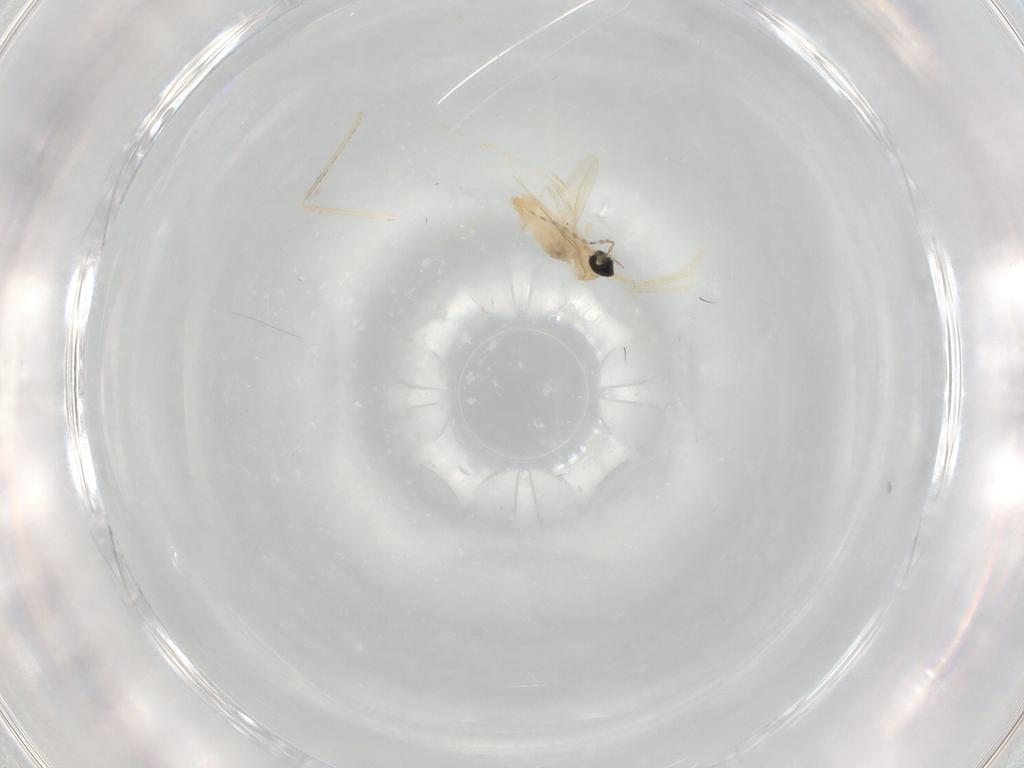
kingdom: Animalia
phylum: Arthropoda
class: Insecta
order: Diptera
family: Cecidomyiidae
